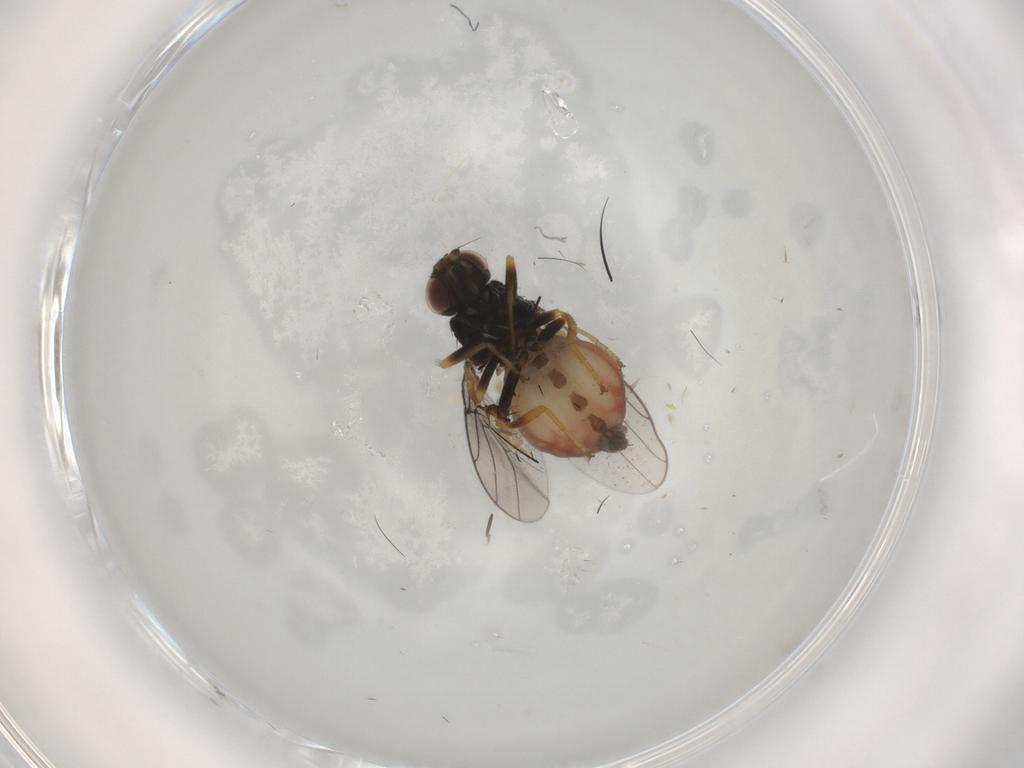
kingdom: Animalia
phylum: Arthropoda
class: Insecta
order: Diptera
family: Chloropidae
